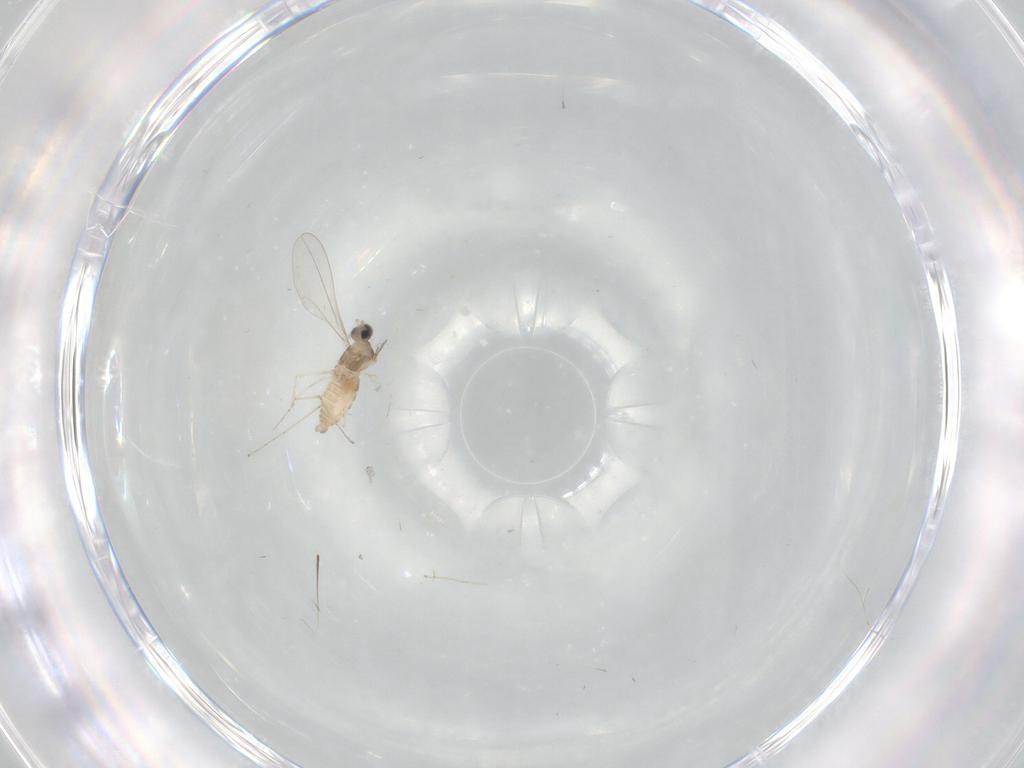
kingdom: Animalia
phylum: Arthropoda
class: Insecta
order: Diptera
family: Cecidomyiidae
